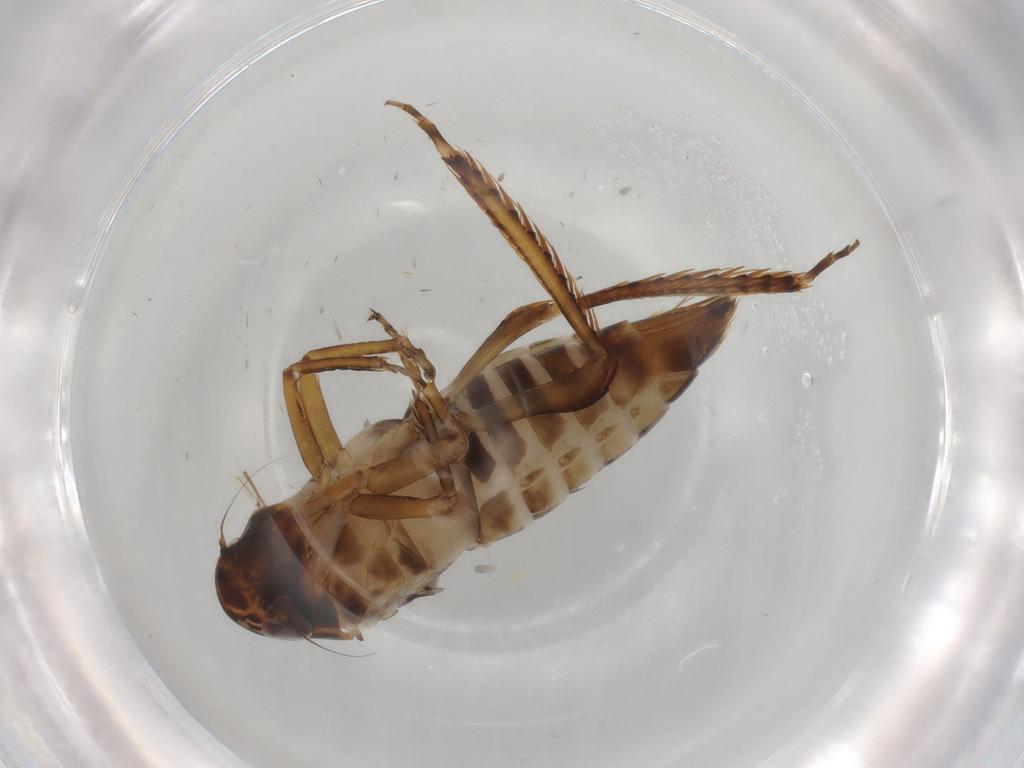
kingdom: Animalia
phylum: Arthropoda
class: Insecta
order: Hemiptera
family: Cicadellidae
